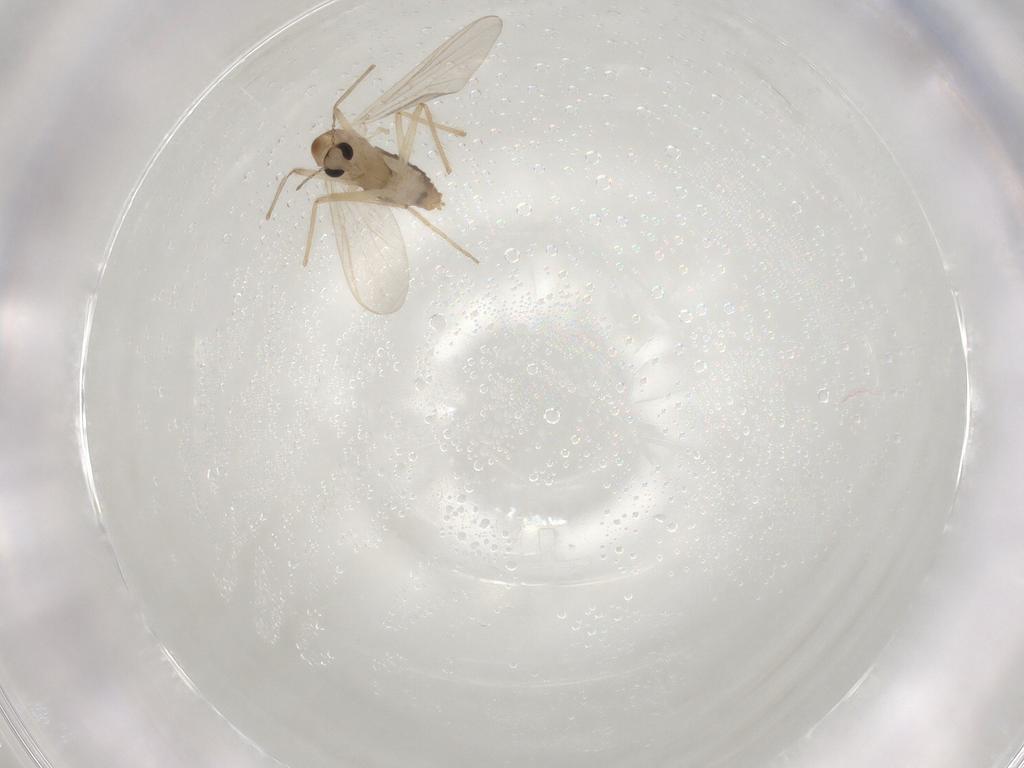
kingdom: Animalia
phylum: Arthropoda
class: Insecta
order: Diptera
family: Chironomidae
